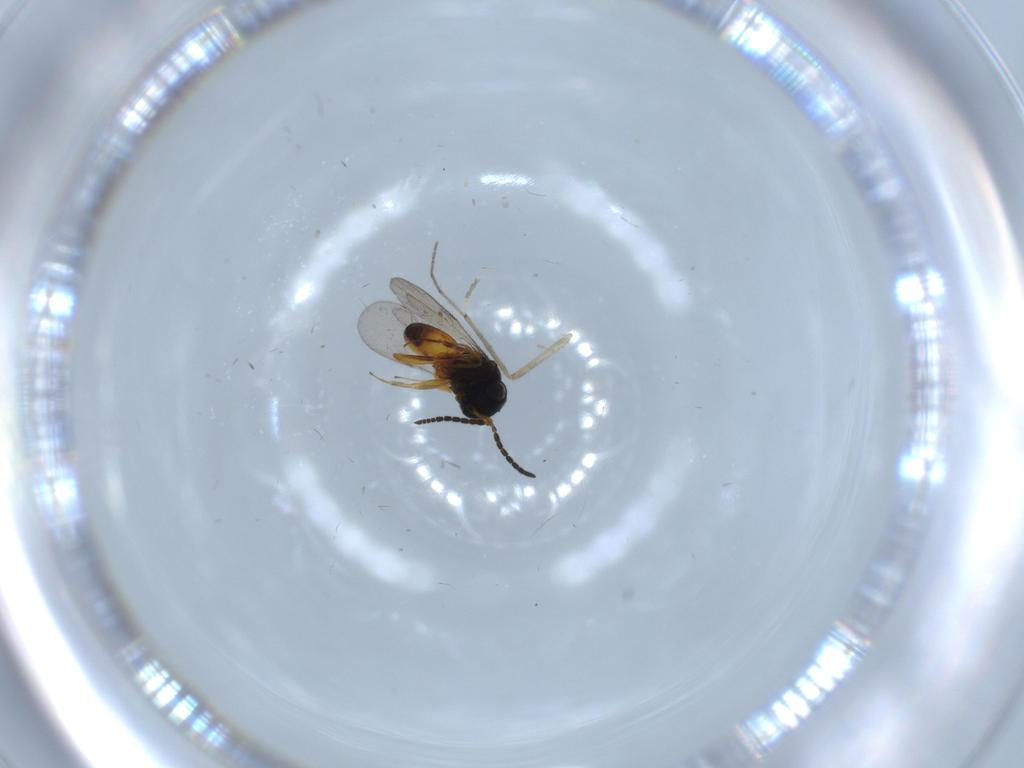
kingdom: Animalia
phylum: Arthropoda
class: Insecta
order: Hymenoptera
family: Scelionidae
